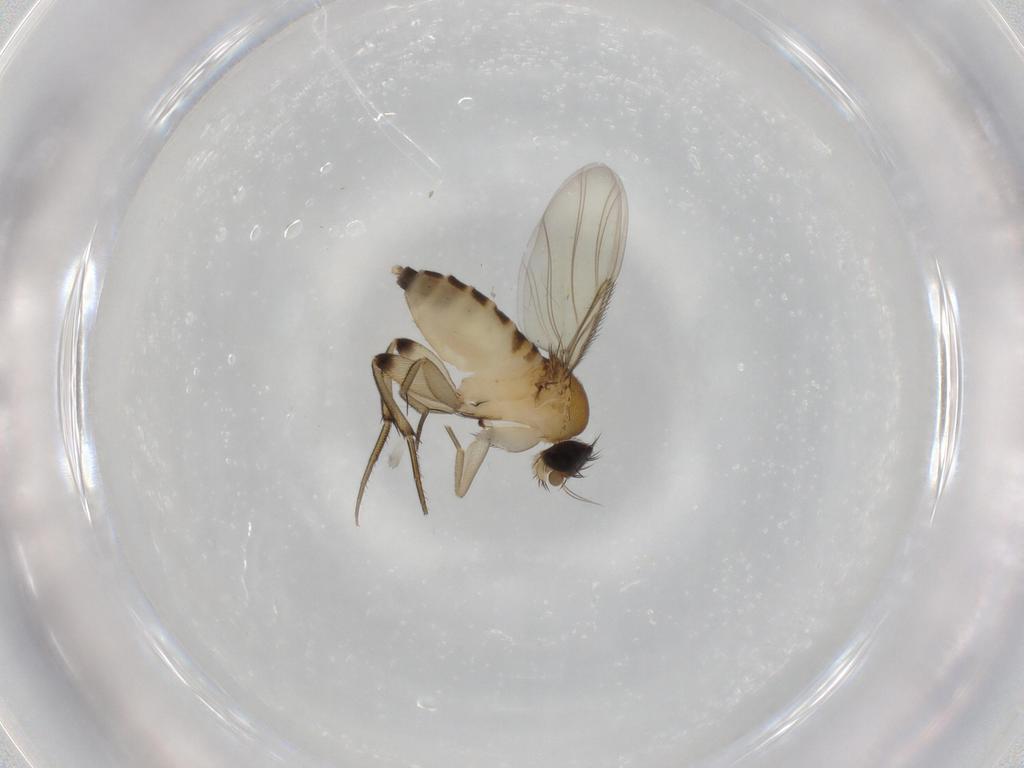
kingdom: Animalia
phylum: Arthropoda
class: Insecta
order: Diptera
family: Phoridae
